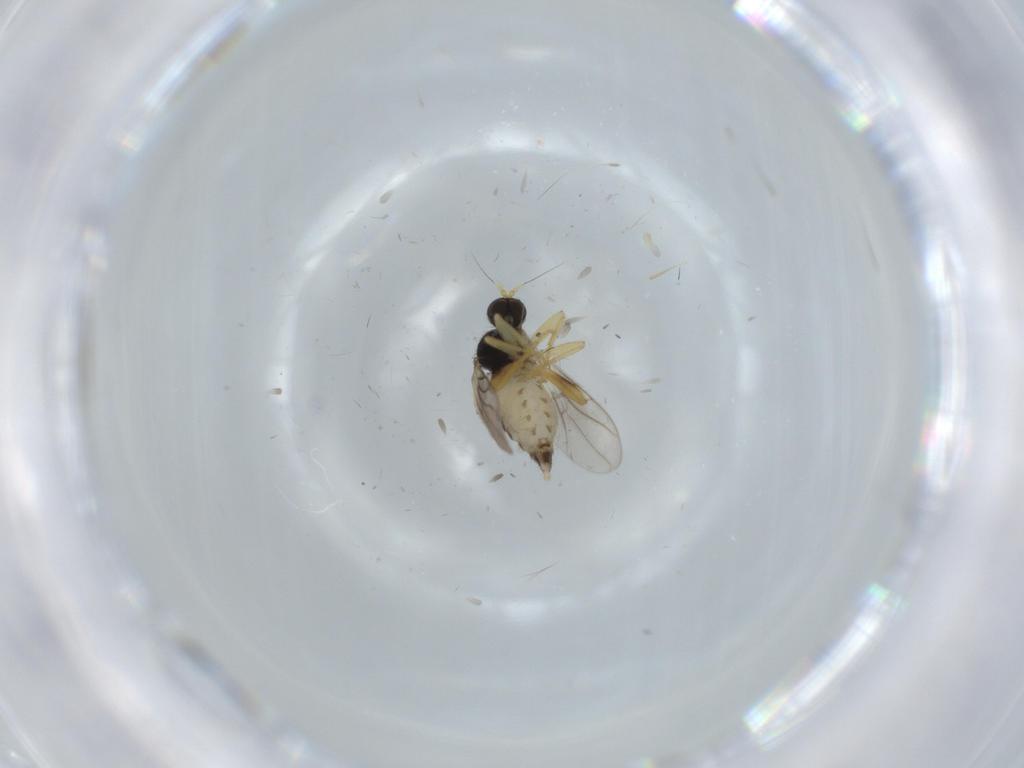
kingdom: Animalia
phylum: Arthropoda
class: Insecta
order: Diptera
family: Hybotidae
